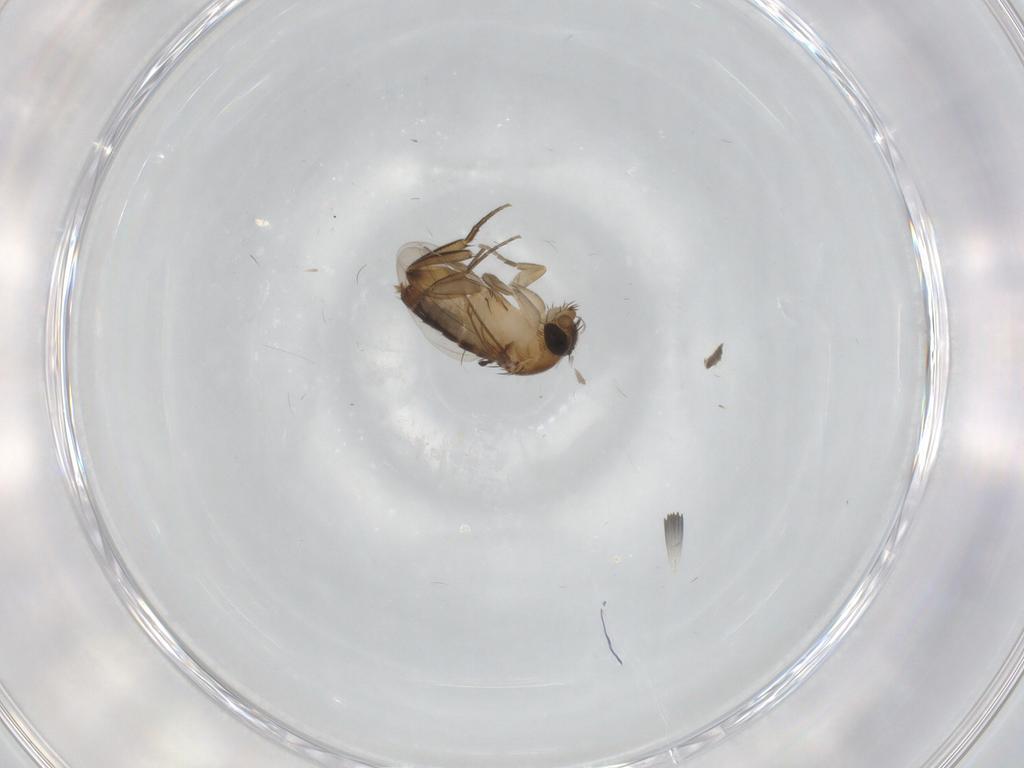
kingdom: Animalia
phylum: Arthropoda
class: Insecta
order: Diptera
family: Phoridae
